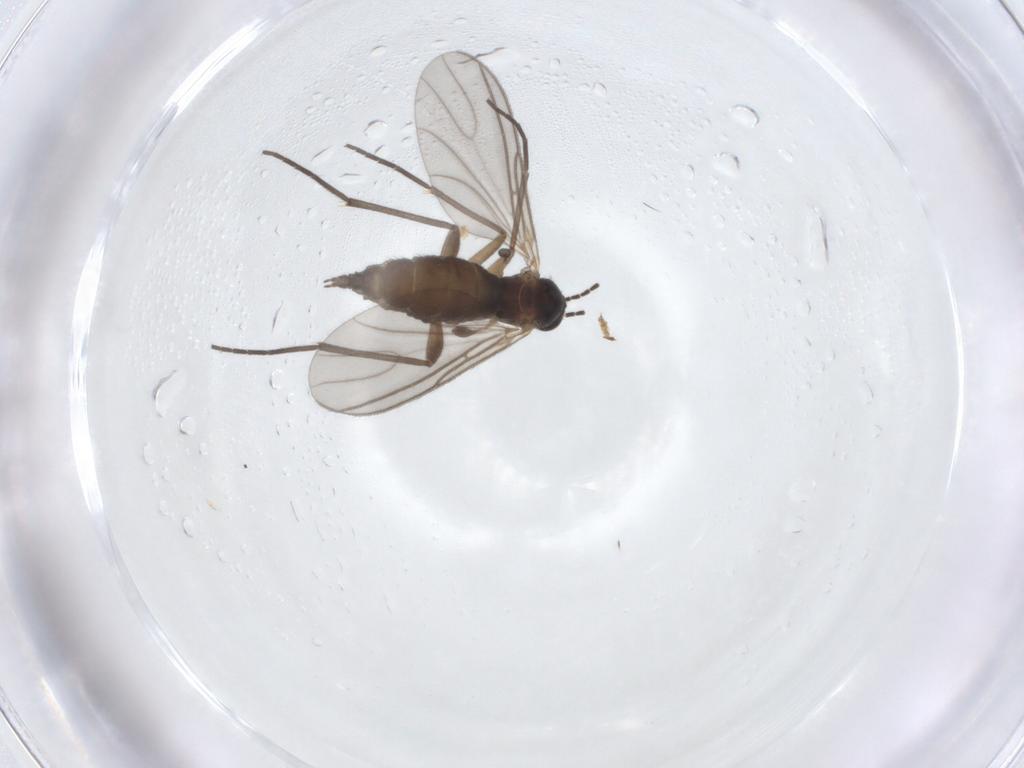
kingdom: Animalia
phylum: Arthropoda
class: Insecta
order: Diptera
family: Sciaridae
